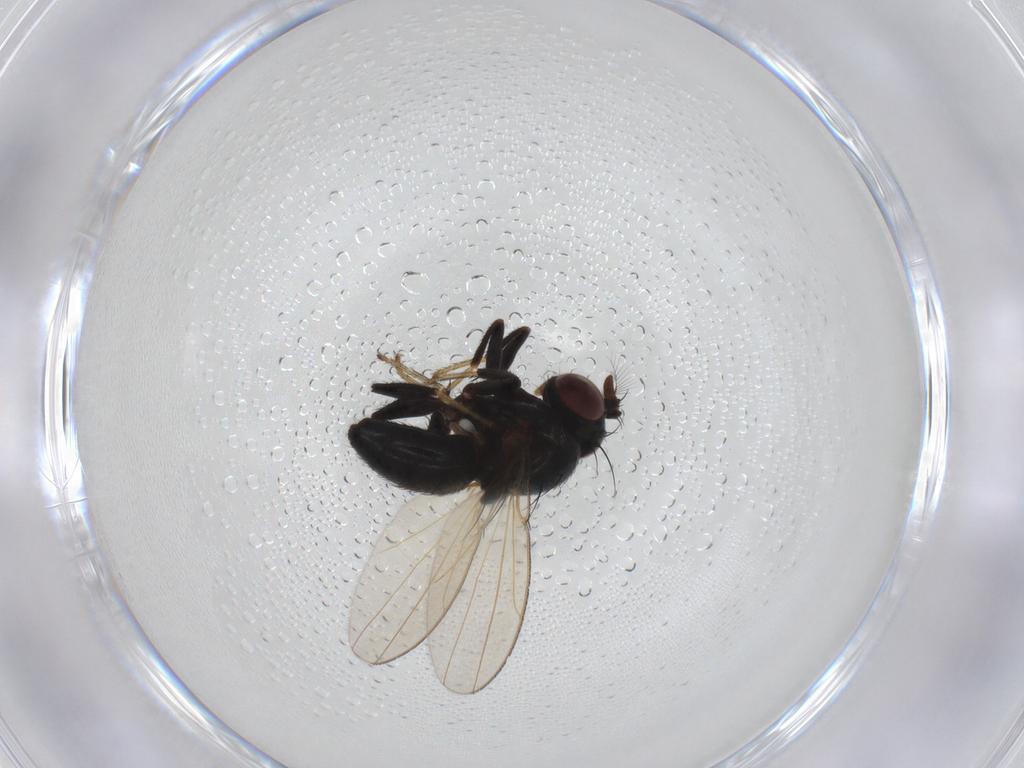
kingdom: Animalia
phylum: Arthropoda
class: Insecta
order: Diptera
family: Ephydridae
